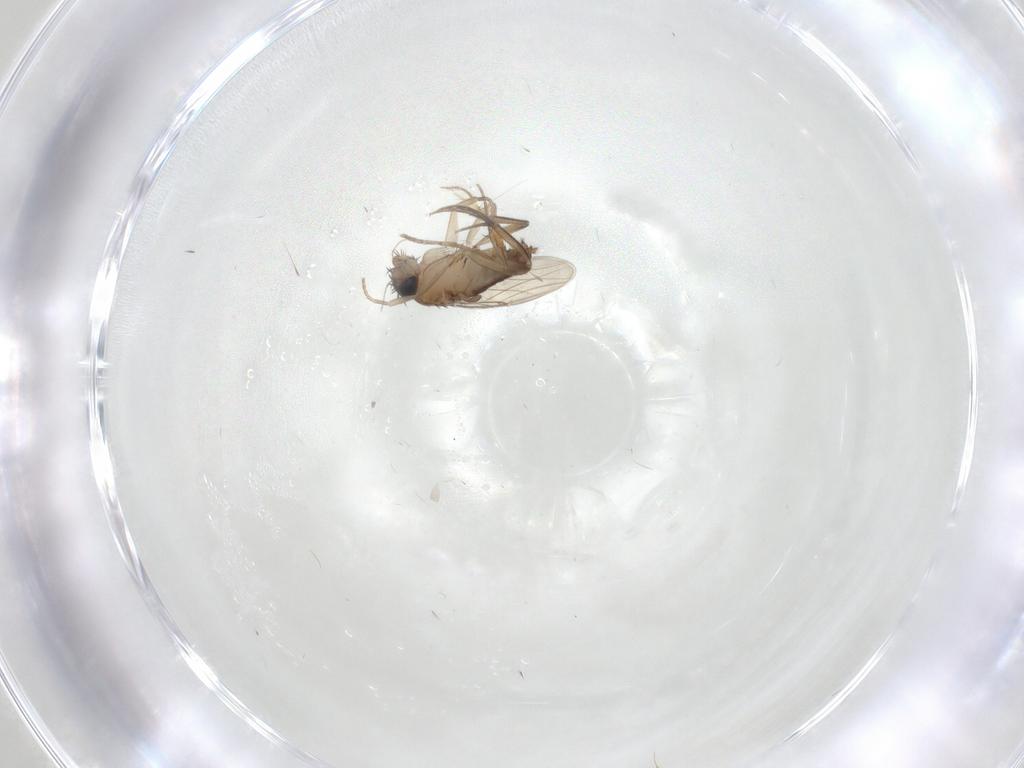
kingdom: Animalia
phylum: Arthropoda
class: Insecta
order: Diptera
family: Phoridae
